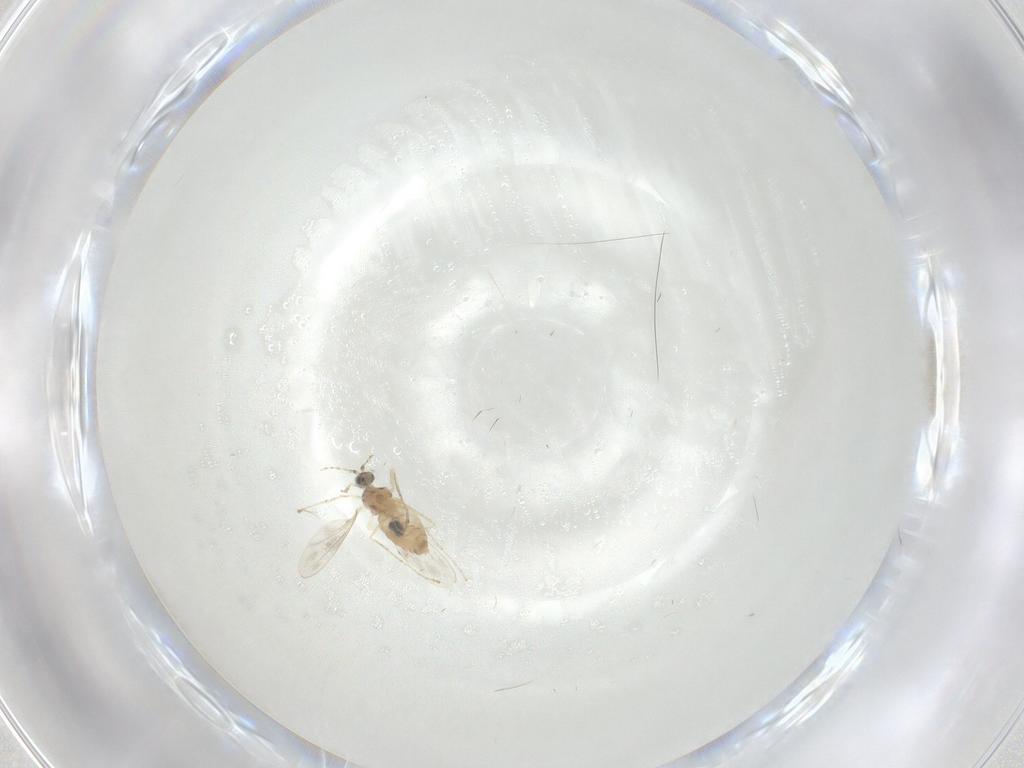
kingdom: Animalia
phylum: Arthropoda
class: Insecta
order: Diptera
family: Cecidomyiidae
